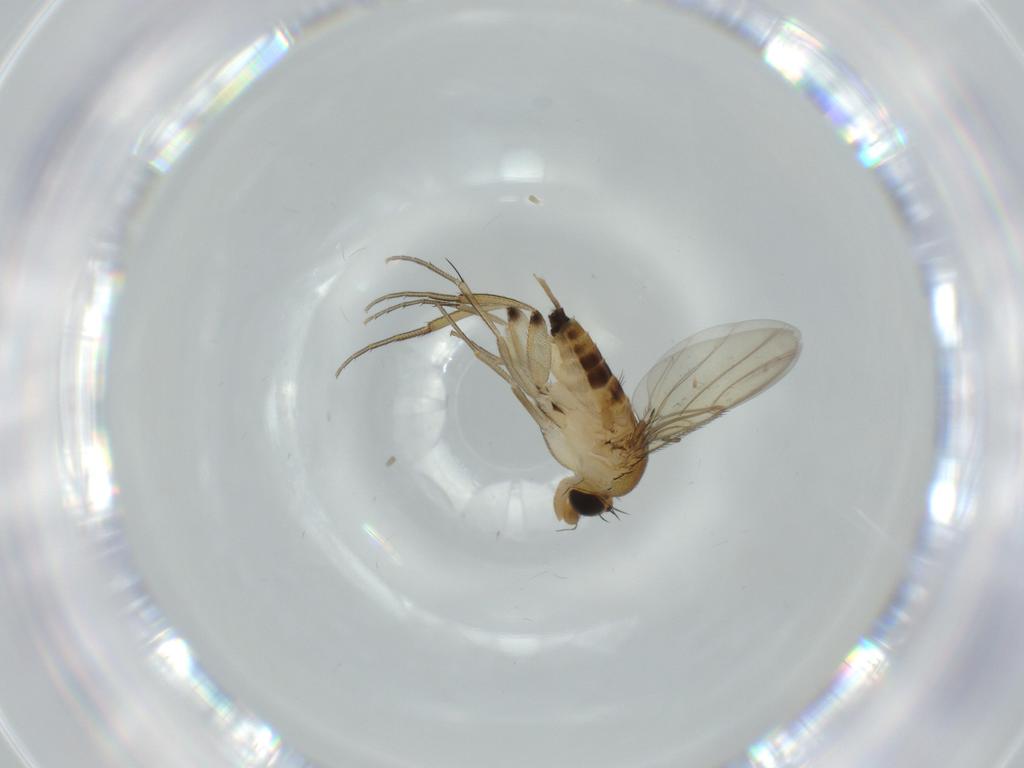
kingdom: Animalia
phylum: Arthropoda
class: Insecta
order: Diptera
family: Phoridae
